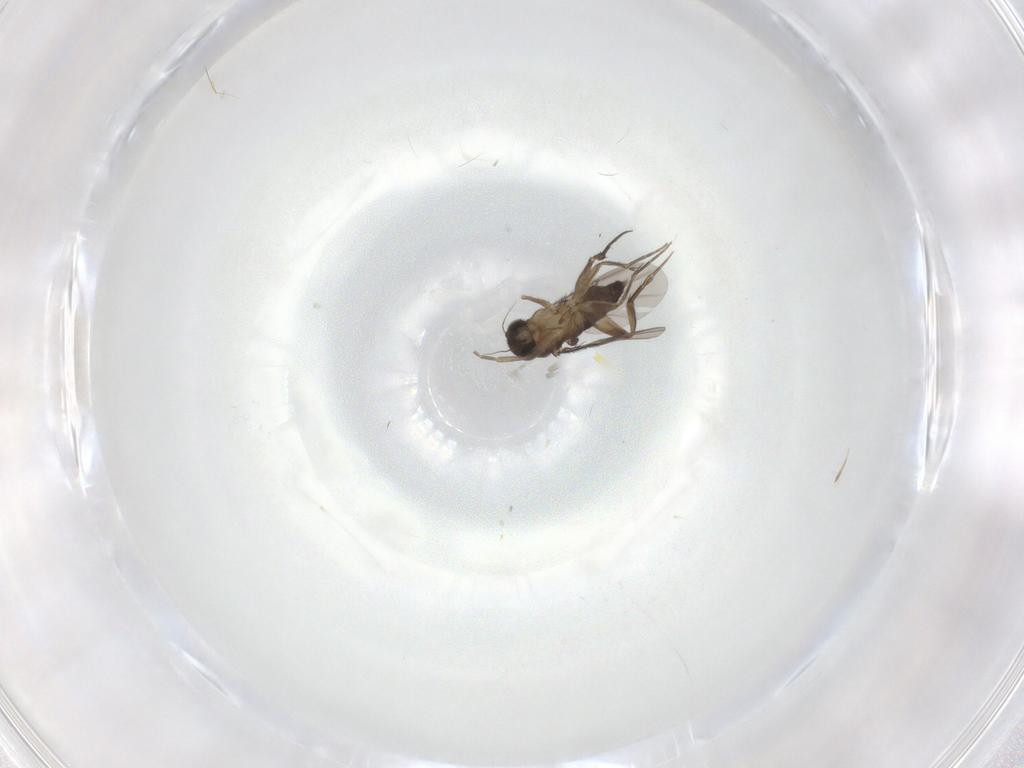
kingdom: Animalia
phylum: Arthropoda
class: Insecta
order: Diptera
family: Phoridae
